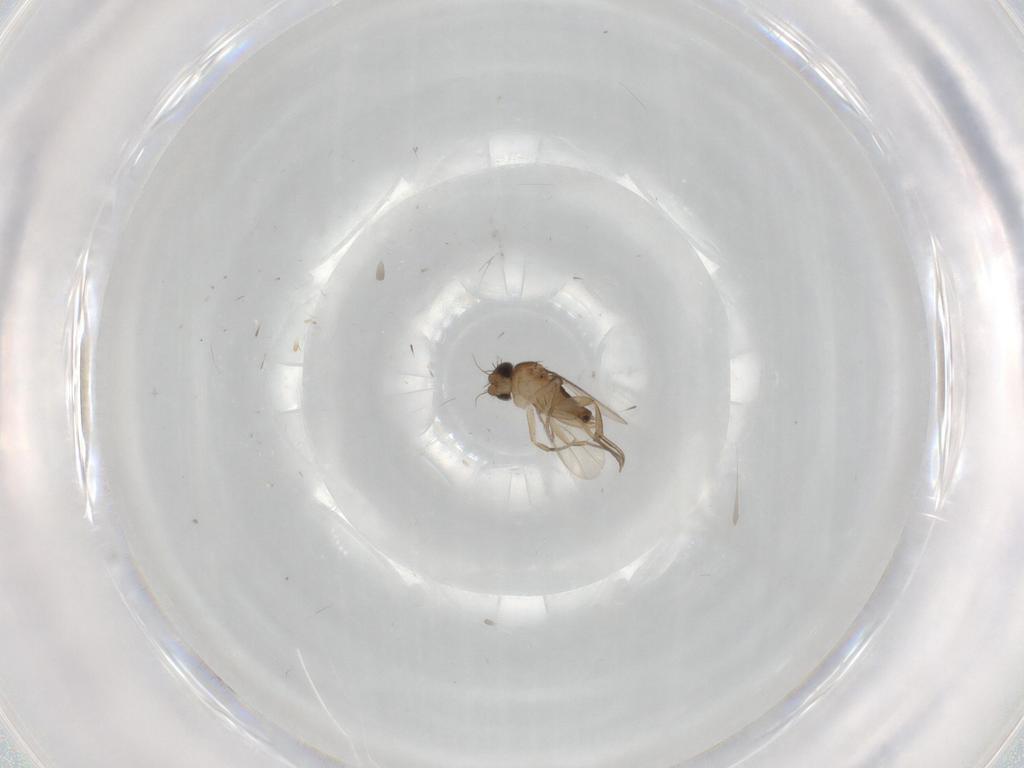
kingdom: Animalia
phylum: Arthropoda
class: Insecta
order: Diptera
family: Phoridae
